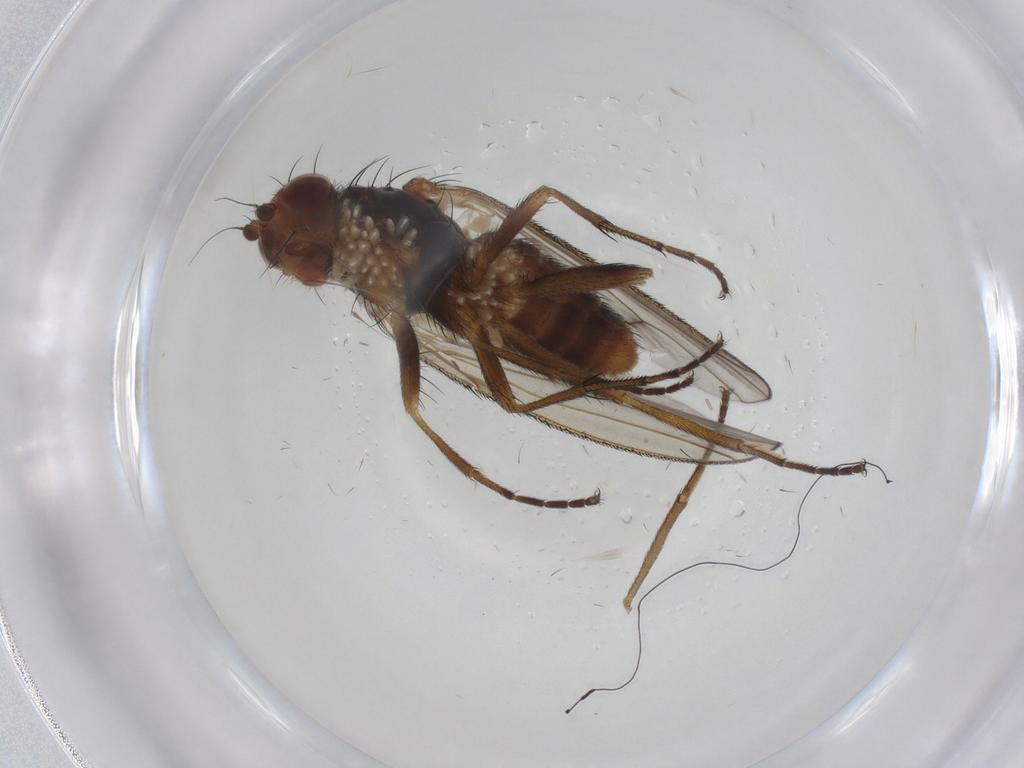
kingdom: Animalia
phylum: Arthropoda
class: Insecta
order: Diptera
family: Heleomyzidae
